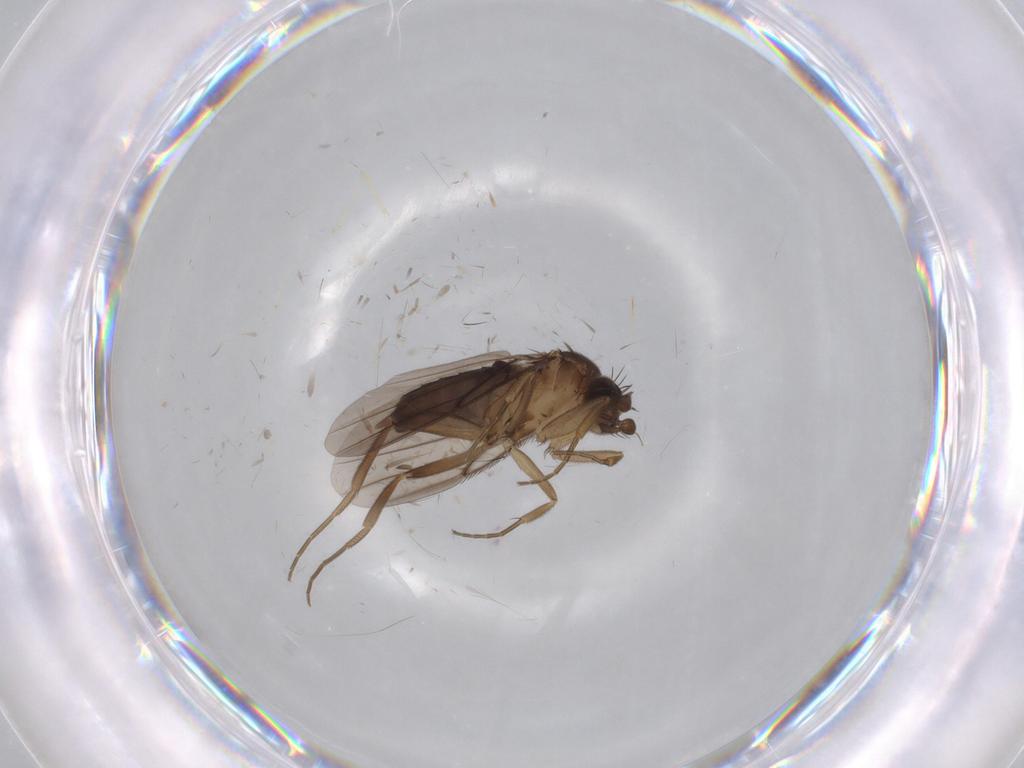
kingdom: Animalia
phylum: Arthropoda
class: Insecta
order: Diptera
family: Phoridae
